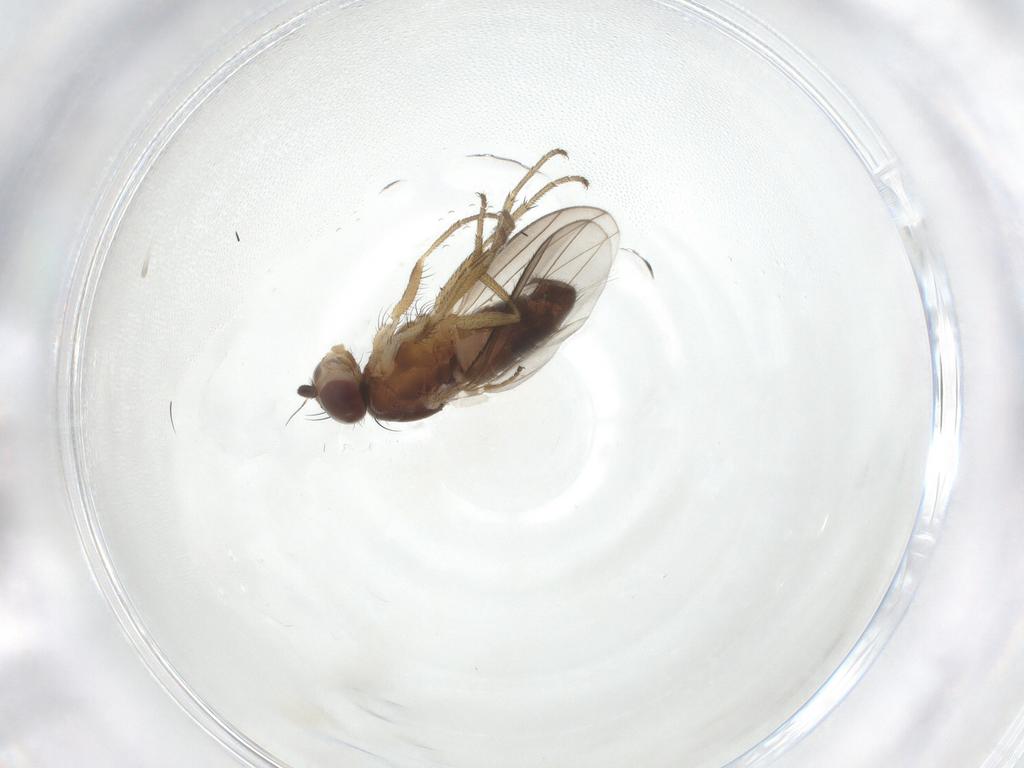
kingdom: Animalia
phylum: Arthropoda
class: Insecta
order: Diptera
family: Heleomyzidae
